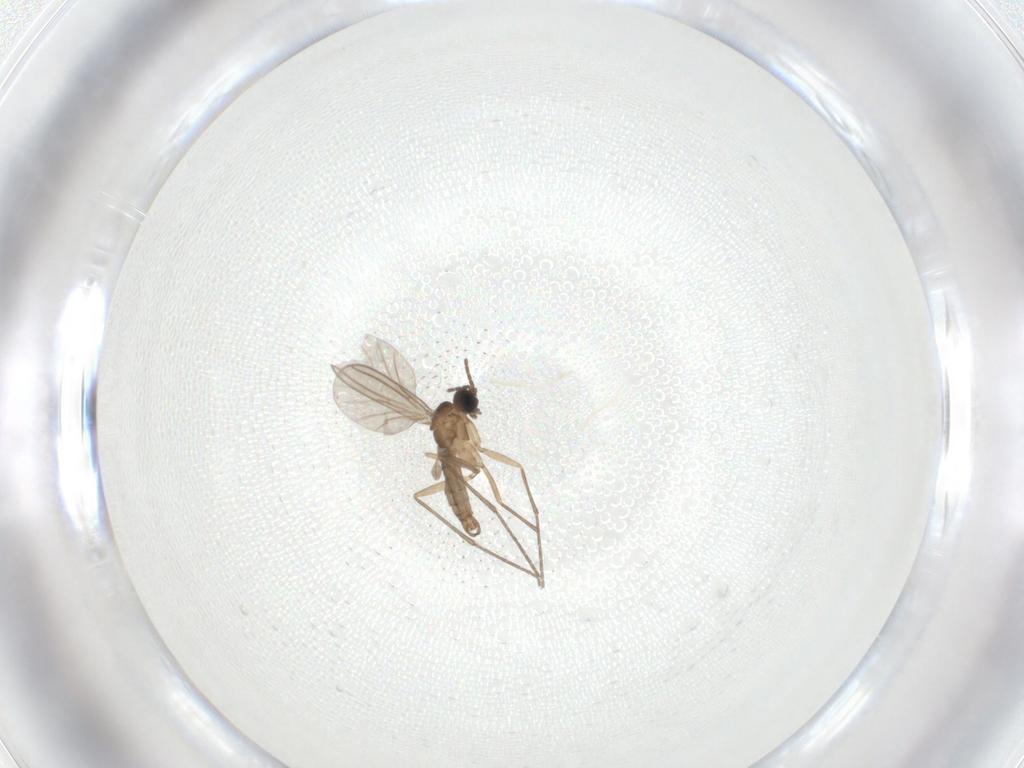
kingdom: Animalia
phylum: Arthropoda
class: Insecta
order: Diptera
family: Sciaridae
